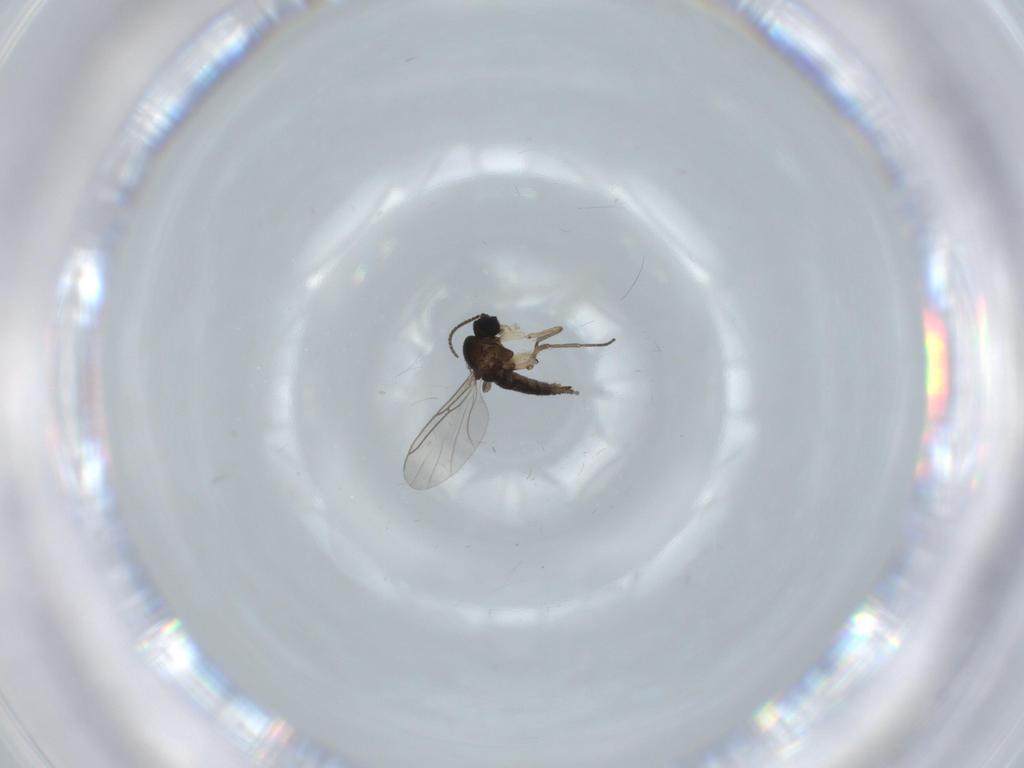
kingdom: Animalia
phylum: Arthropoda
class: Insecta
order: Diptera
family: Sciaridae
